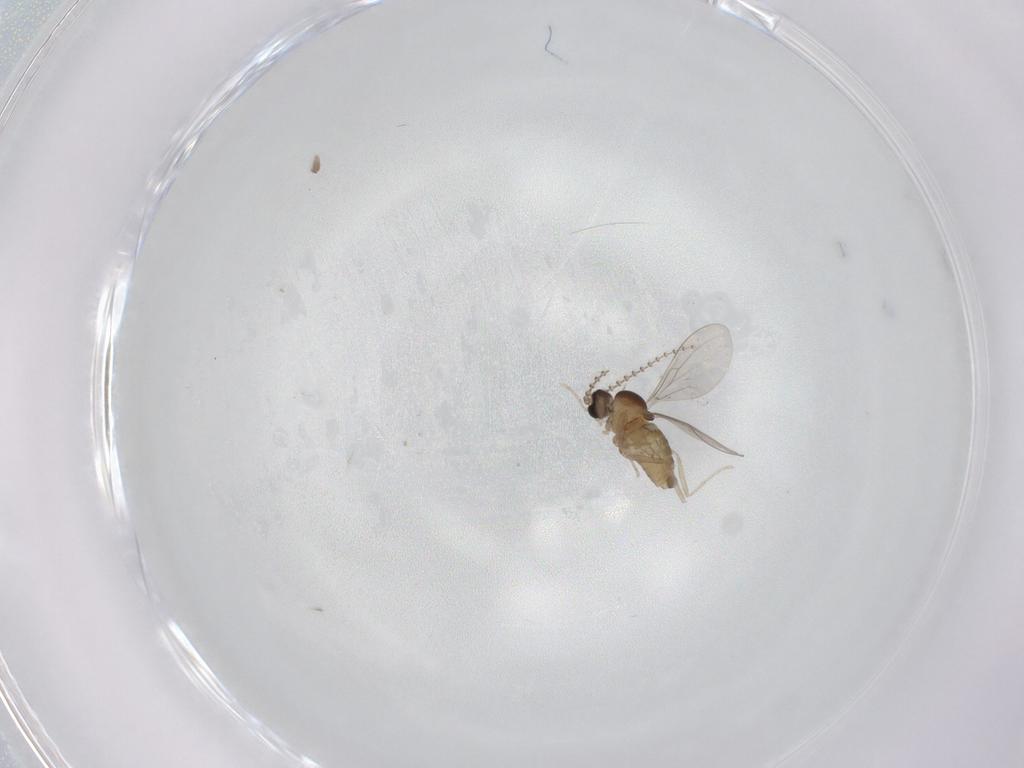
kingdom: Animalia
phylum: Arthropoda
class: Insecta
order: Diptera
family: Cecidomyiidae
